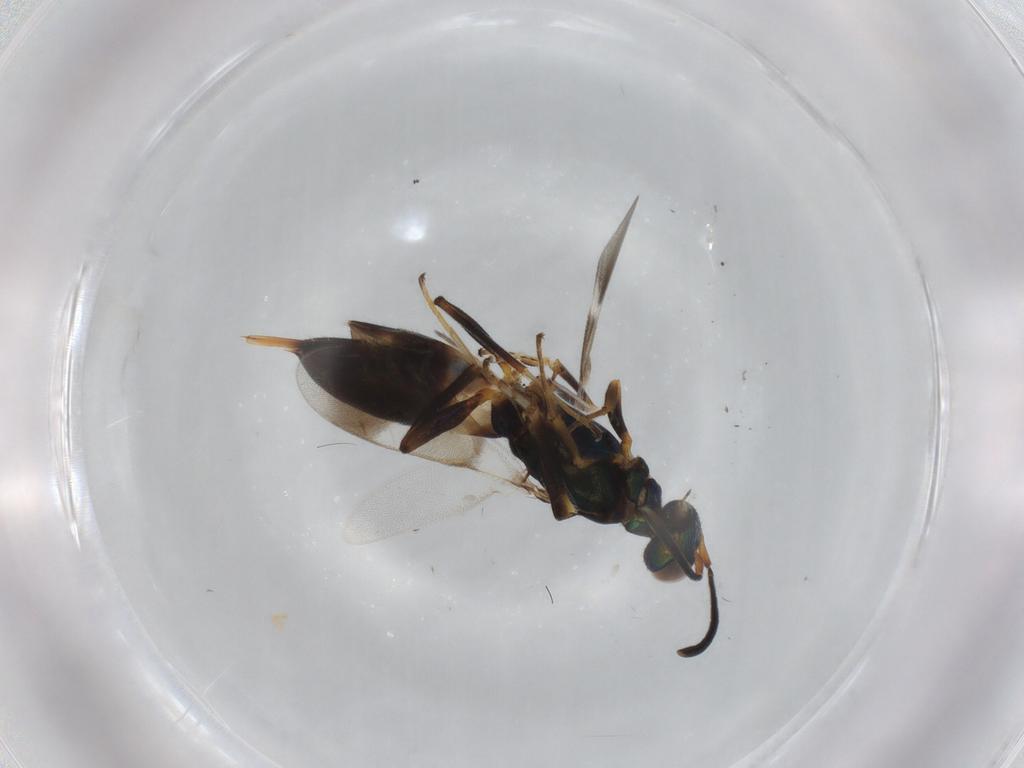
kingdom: Animalia
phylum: Arthropoda
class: Insecta
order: Hymenoptera
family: Eupelmidae
